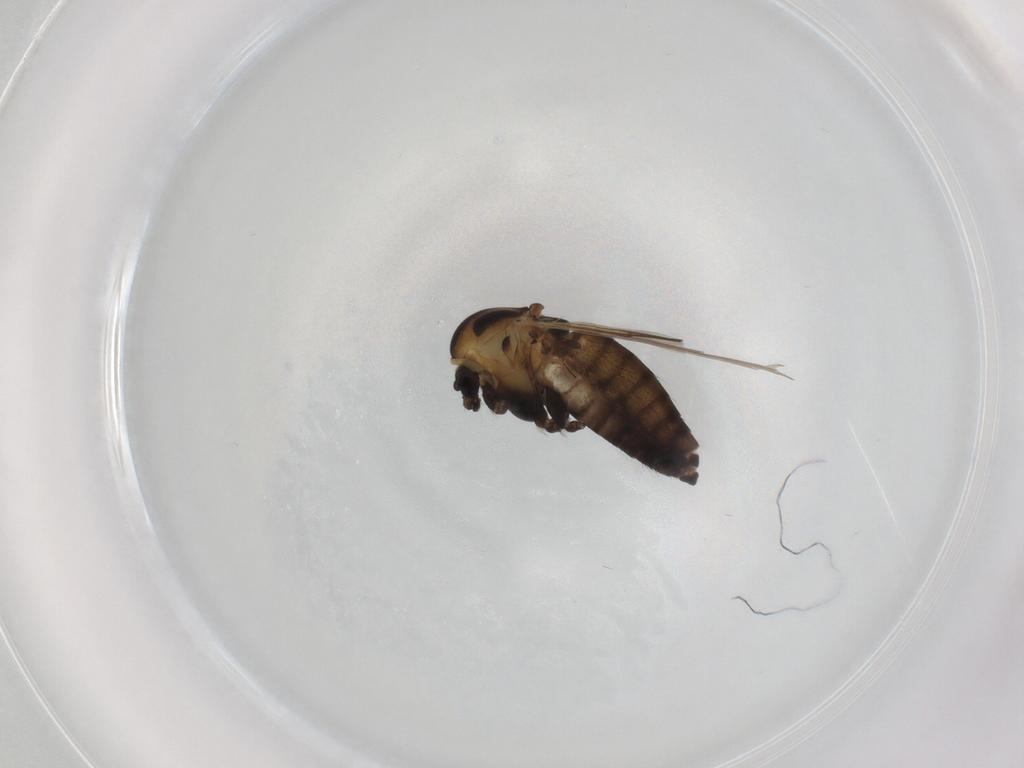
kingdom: Animalia
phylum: Arthropoda
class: Insecta
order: Diptera
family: Chironomidae
